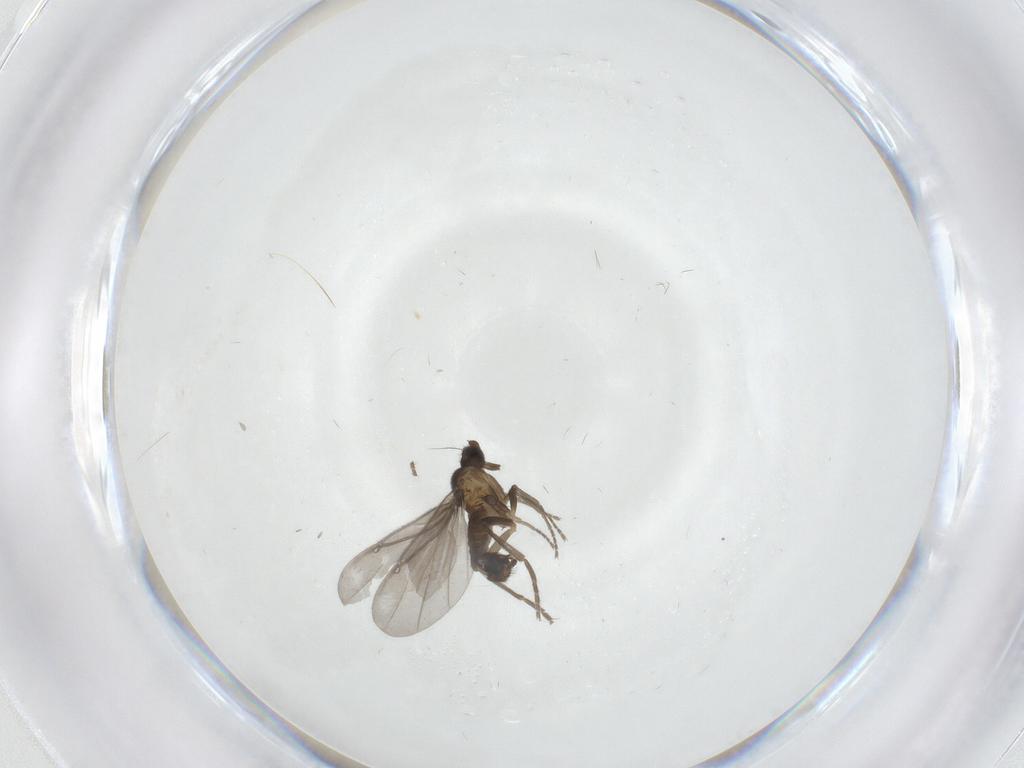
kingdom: Animalia
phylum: Arthropoda
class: Insecta
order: Diptera
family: Phoridae
